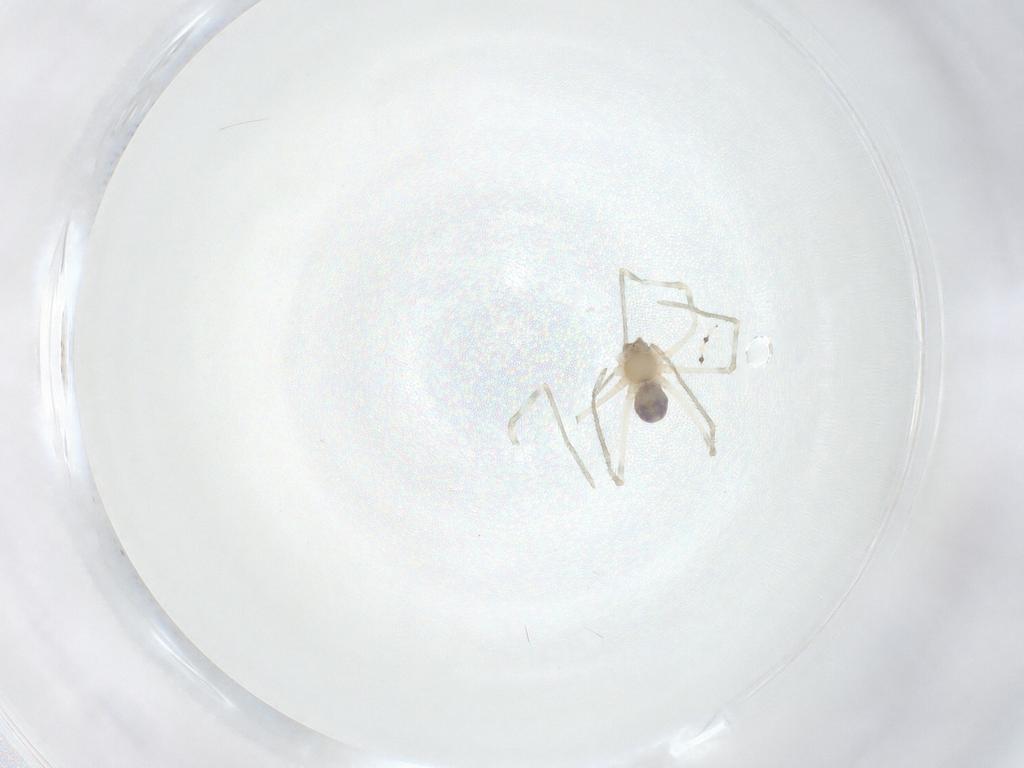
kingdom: Animalia
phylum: Arthropoda
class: Arachnida
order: Araneae
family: Pholcidae
